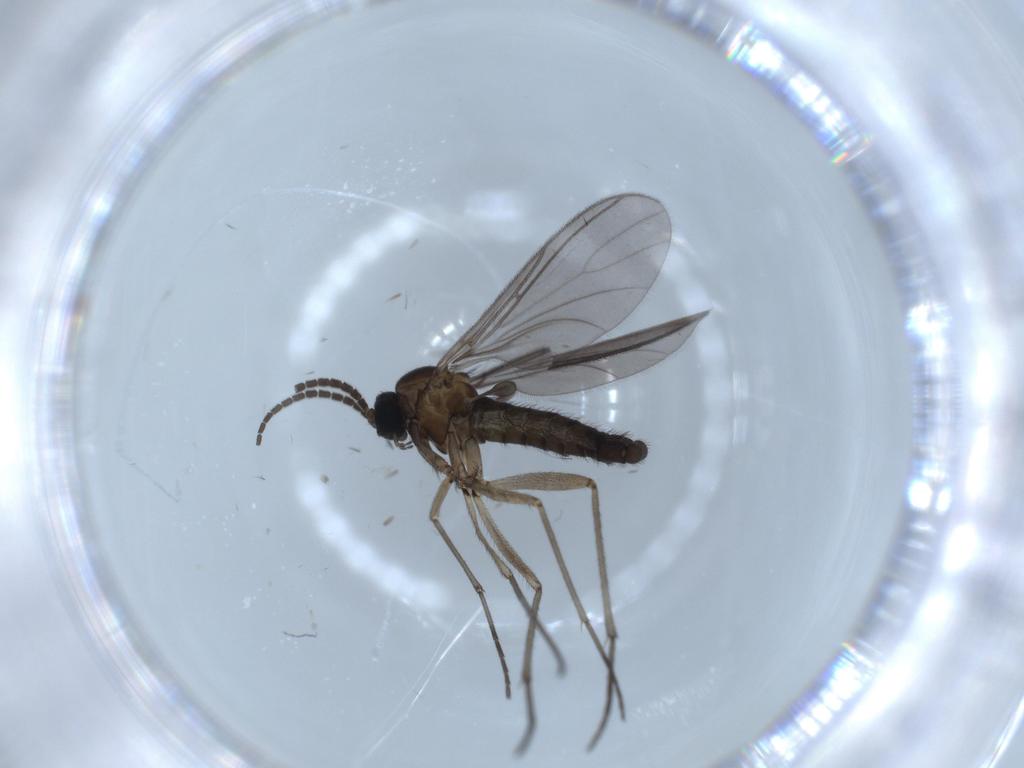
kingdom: Animalia
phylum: Arthropoda
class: Insecta
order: Diptera
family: Sciaridae
